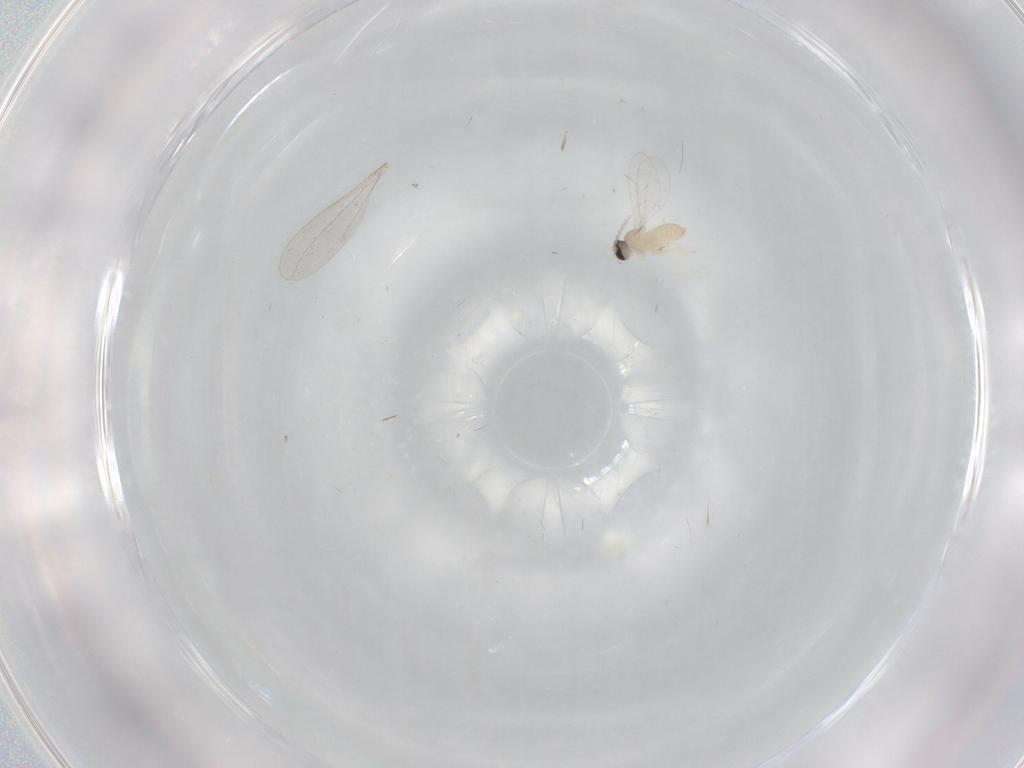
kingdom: Animalia
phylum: Arthropoda
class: Insecta
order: Diptera
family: Cecidomyiidae
